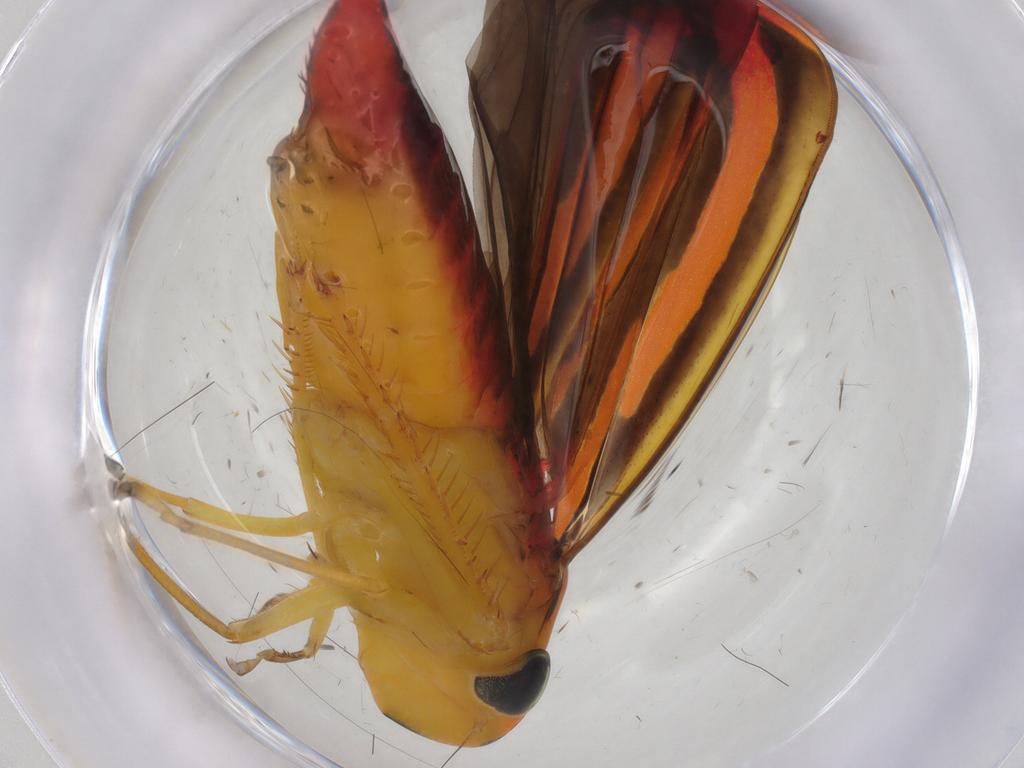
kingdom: Animalia
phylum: Arthropoda
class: Insecta
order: Hemiptera
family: Cicadellidae
